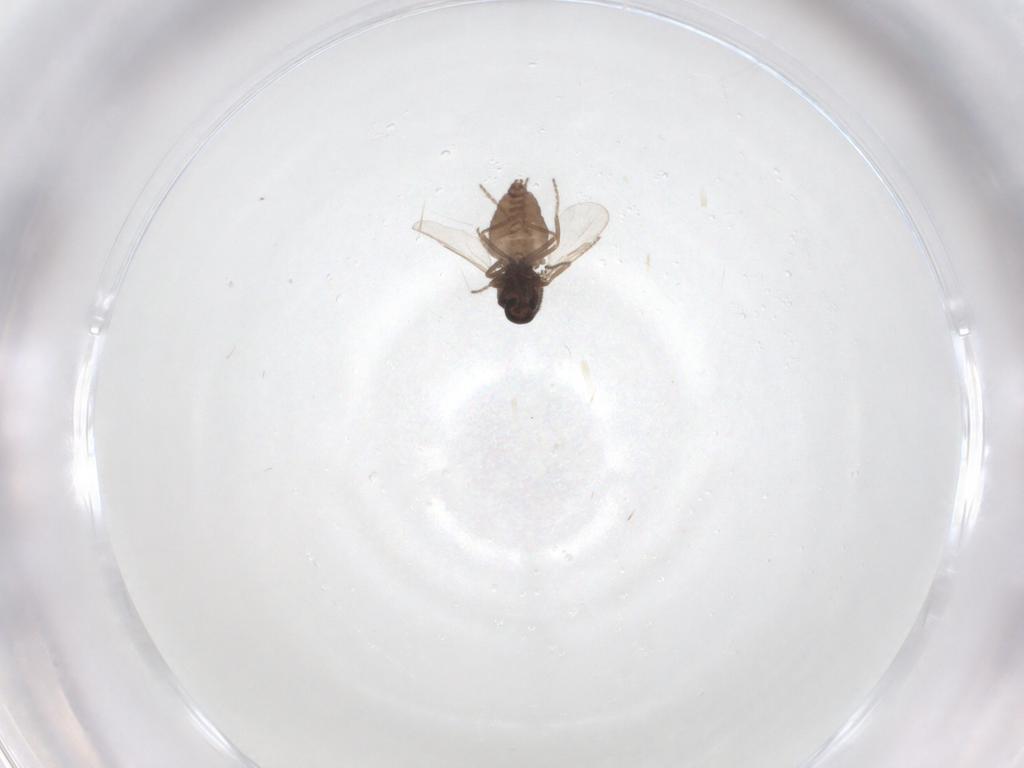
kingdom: Animalia
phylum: Arthropoda
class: Insecta
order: Diptera
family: Ceratopogonidae
